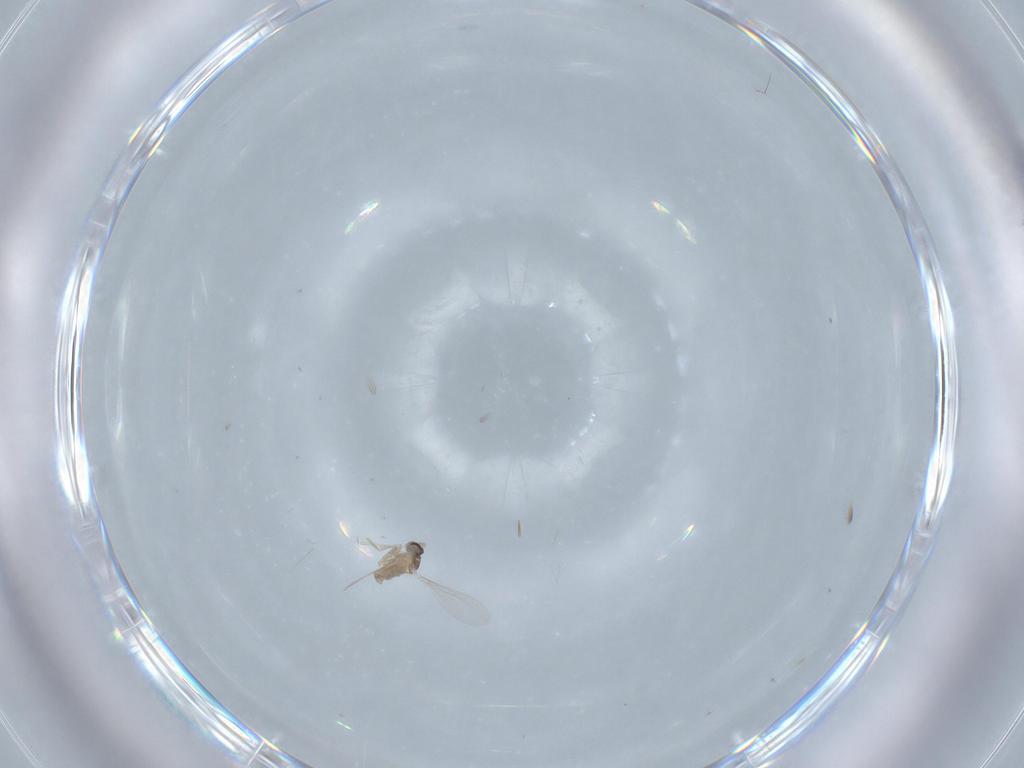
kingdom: Animalia
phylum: Arthropoda
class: Insecta
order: Diptera
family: Cecidomyiidae
